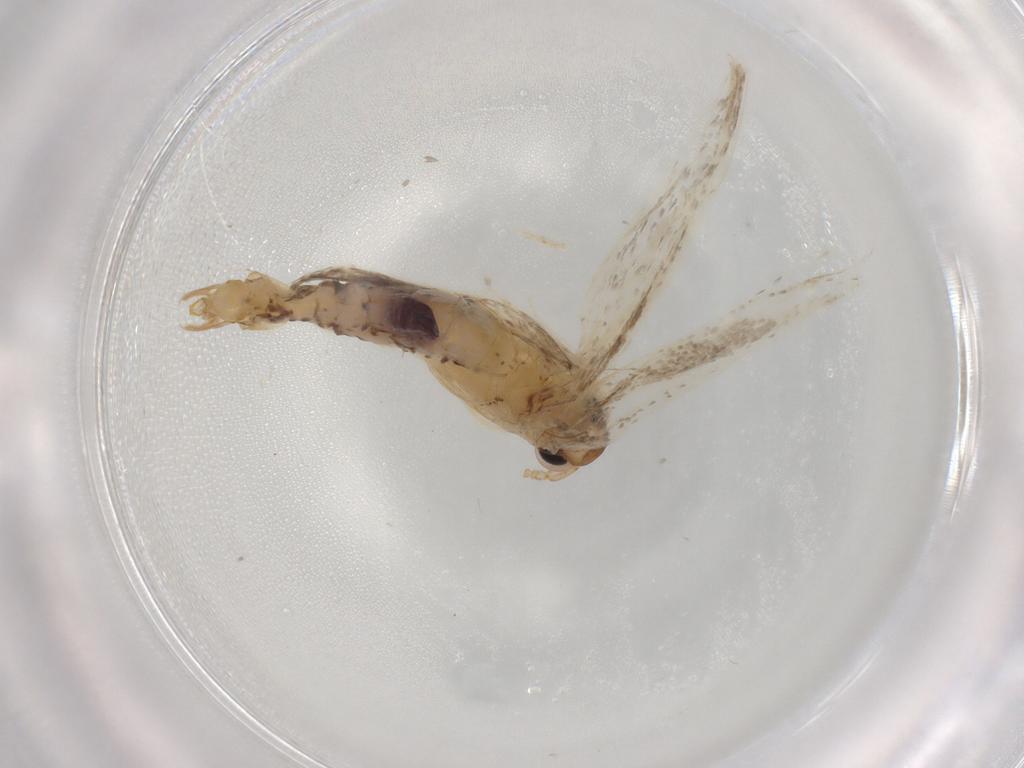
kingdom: Animalia
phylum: Arthropoda
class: Insecta
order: Lepidoptera
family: Lecithoceridae
